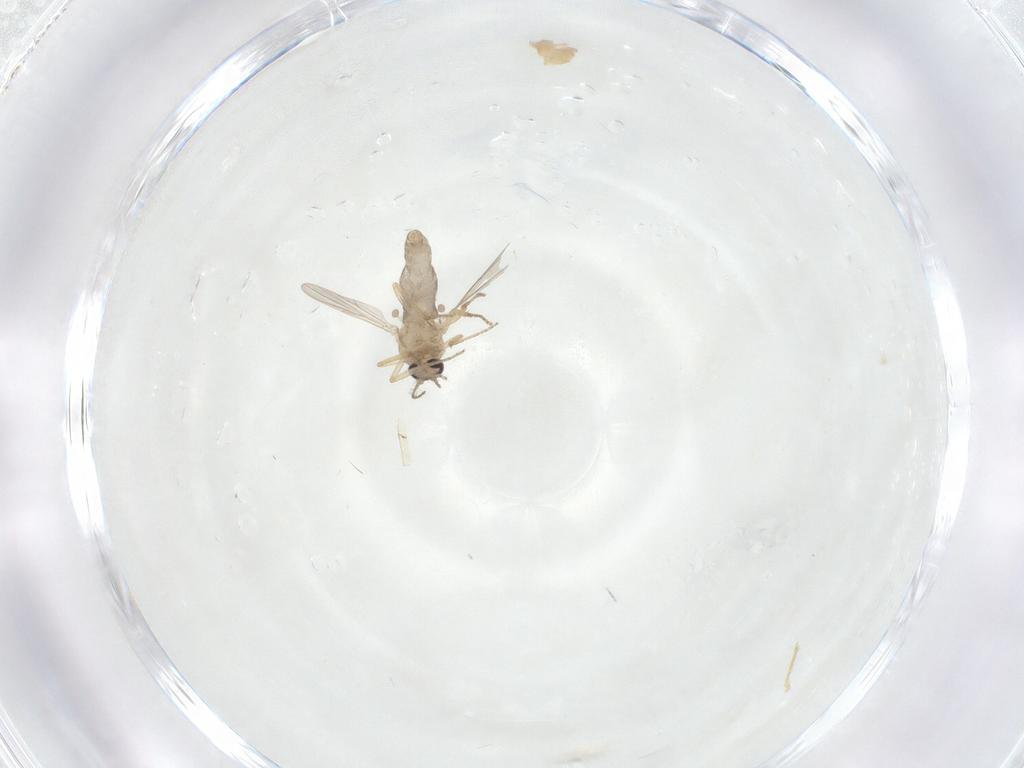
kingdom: Animalia
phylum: Arthropoda
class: Insecta
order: Diptera
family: Ceratopogonidae
